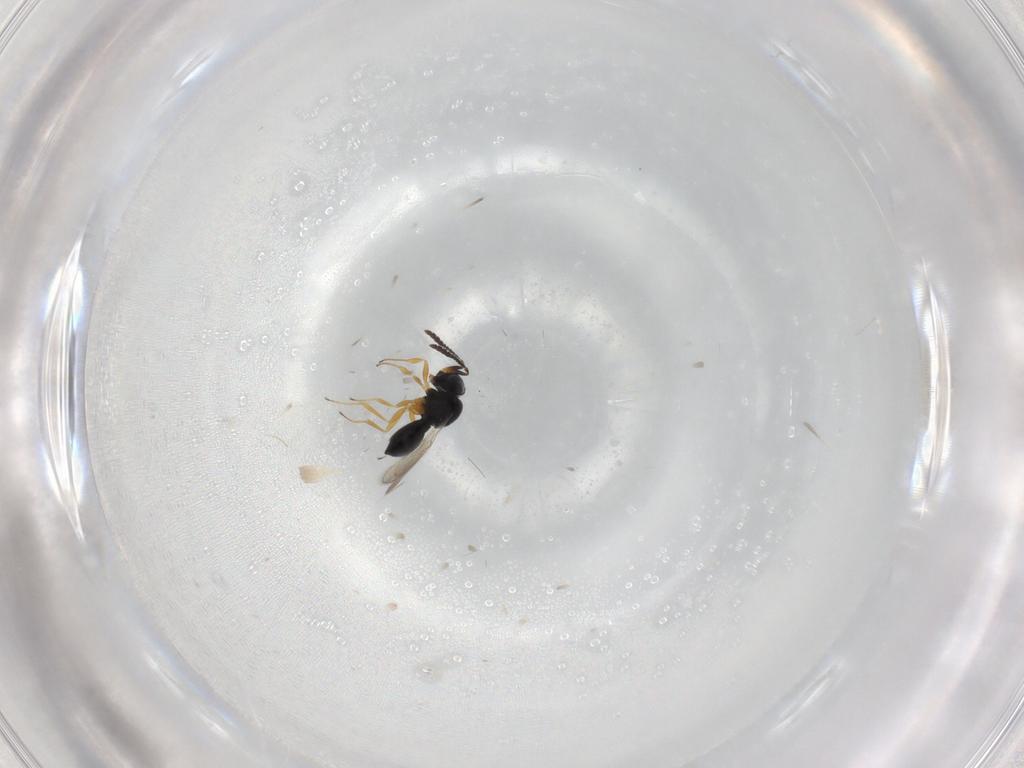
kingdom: Animalia
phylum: Arthropoda
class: Insecta
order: Hymenoptera
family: Scelionidae
